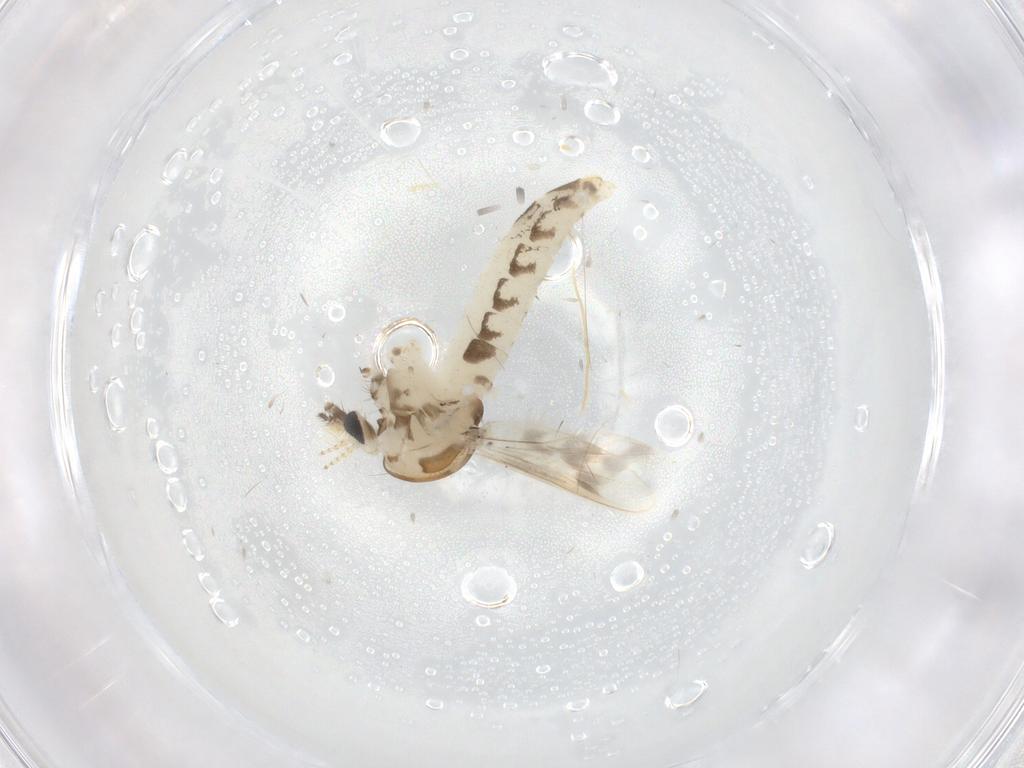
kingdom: Animalia
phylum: Arthropoda
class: Insecta
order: Diptera
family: Corethrellidae
